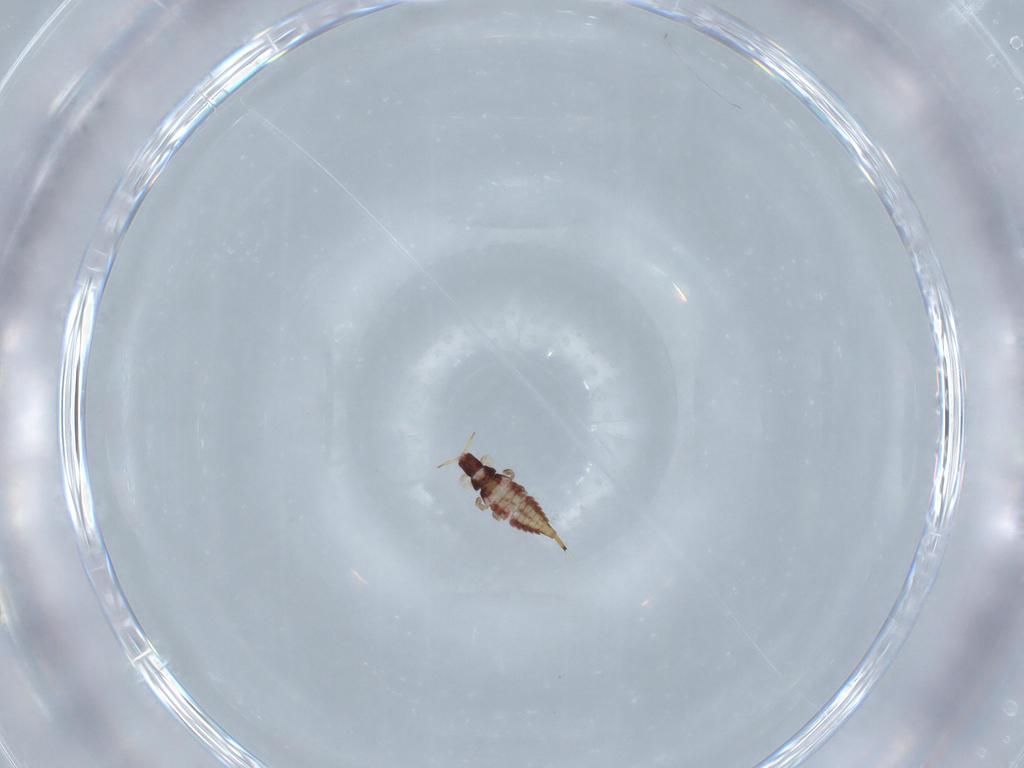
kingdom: Animalia
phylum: Arthropoda
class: Insecta
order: Thysanoptera
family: Phlaeothripidae
